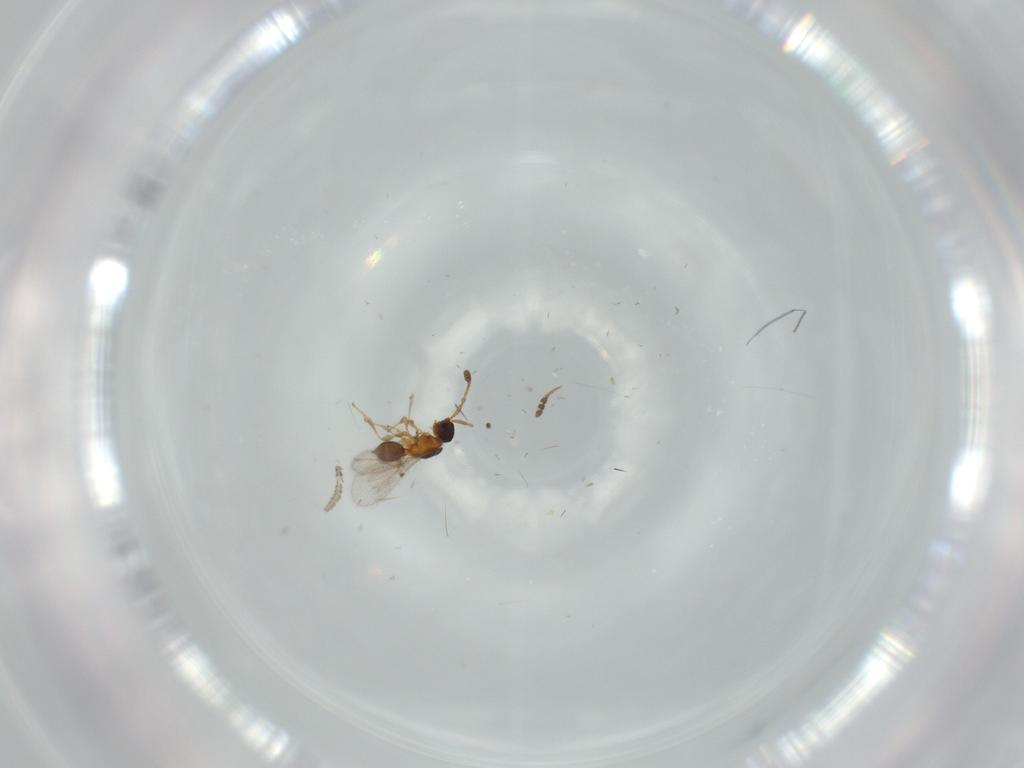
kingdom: Animalia
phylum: Arthropoda
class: Insecta
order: Hymenoptera
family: Diapriidae
